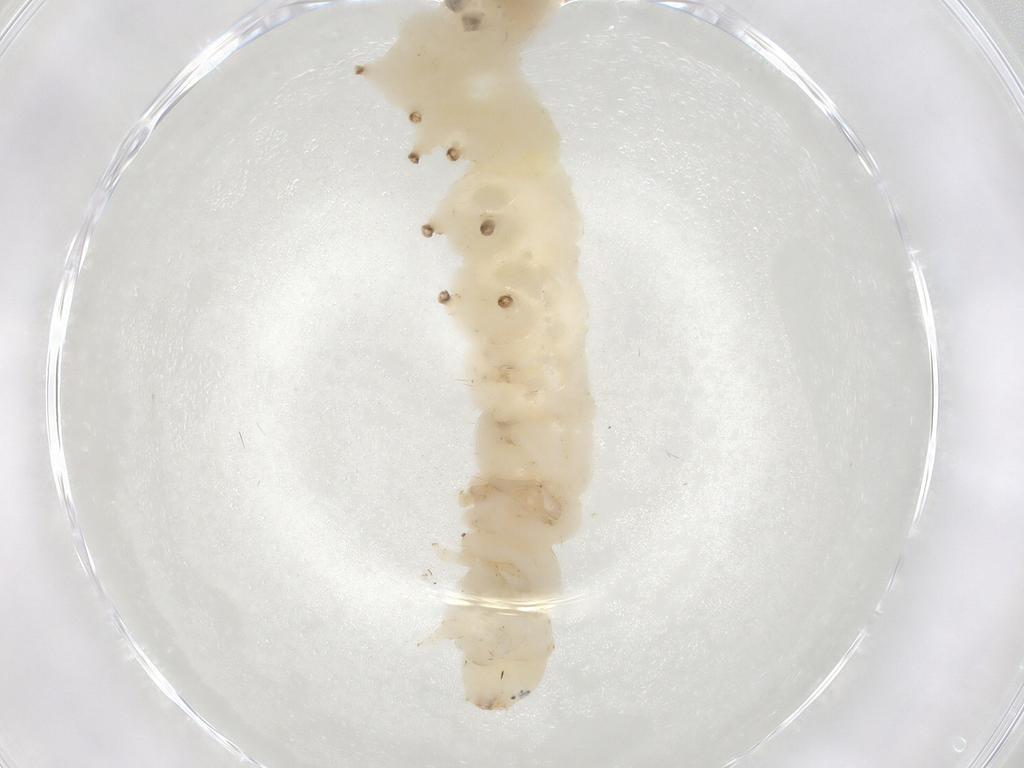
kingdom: Animalia
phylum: Arthropoda
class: Insecta
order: Lepidoptera
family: Depressariidae
